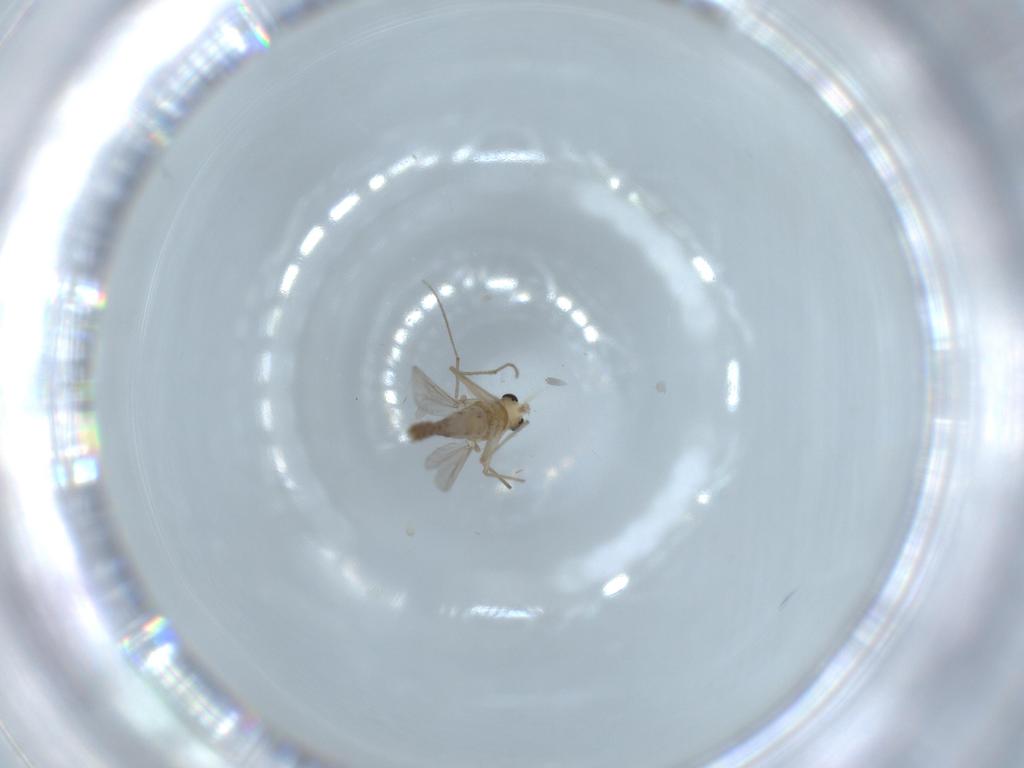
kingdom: Animalia
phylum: Arthropoda
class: Insecta
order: Diptera
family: Chironomidae
